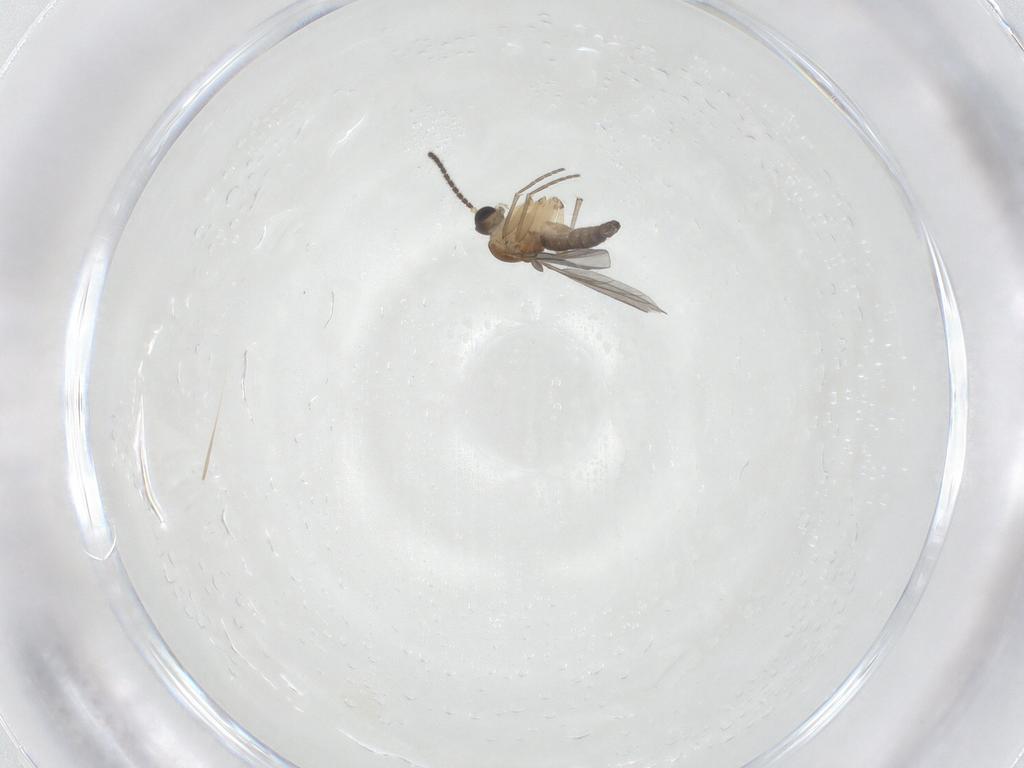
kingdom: Animalia
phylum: Arthropoda
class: Insecta
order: Diptera
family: Sciaridae
